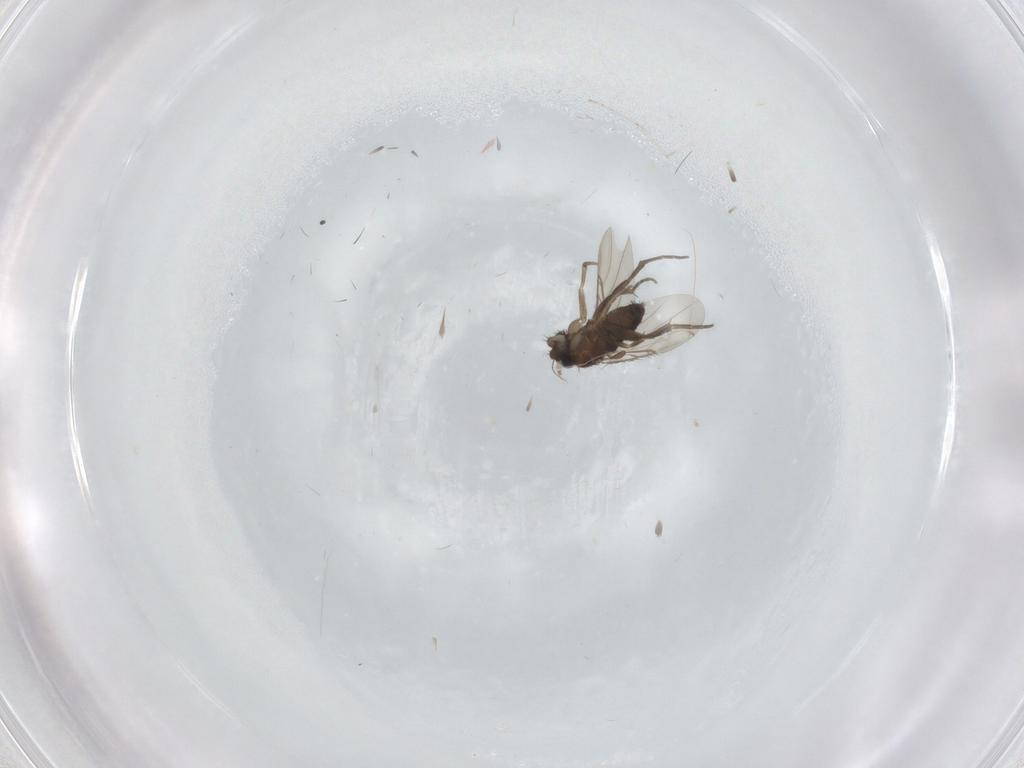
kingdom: Animalia
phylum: Arthropoda
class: Insecta
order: Diptera
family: Phoridae
